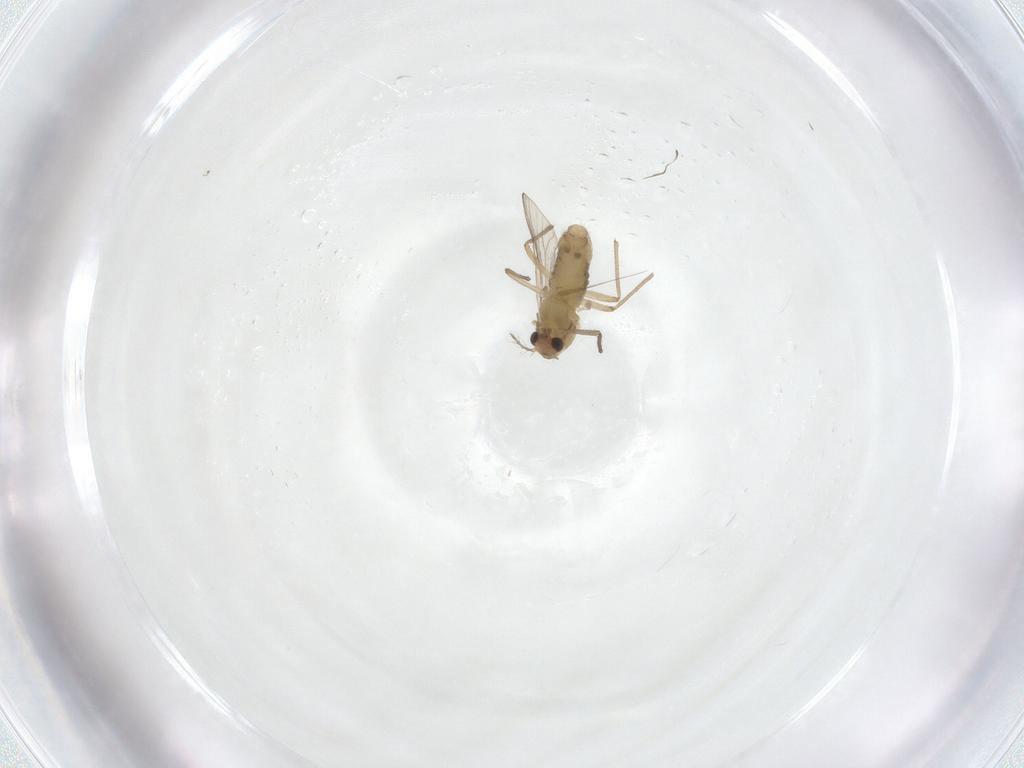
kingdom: Animalia
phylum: Arthropoda
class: Insecta
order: Diptera
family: Chironomidae
